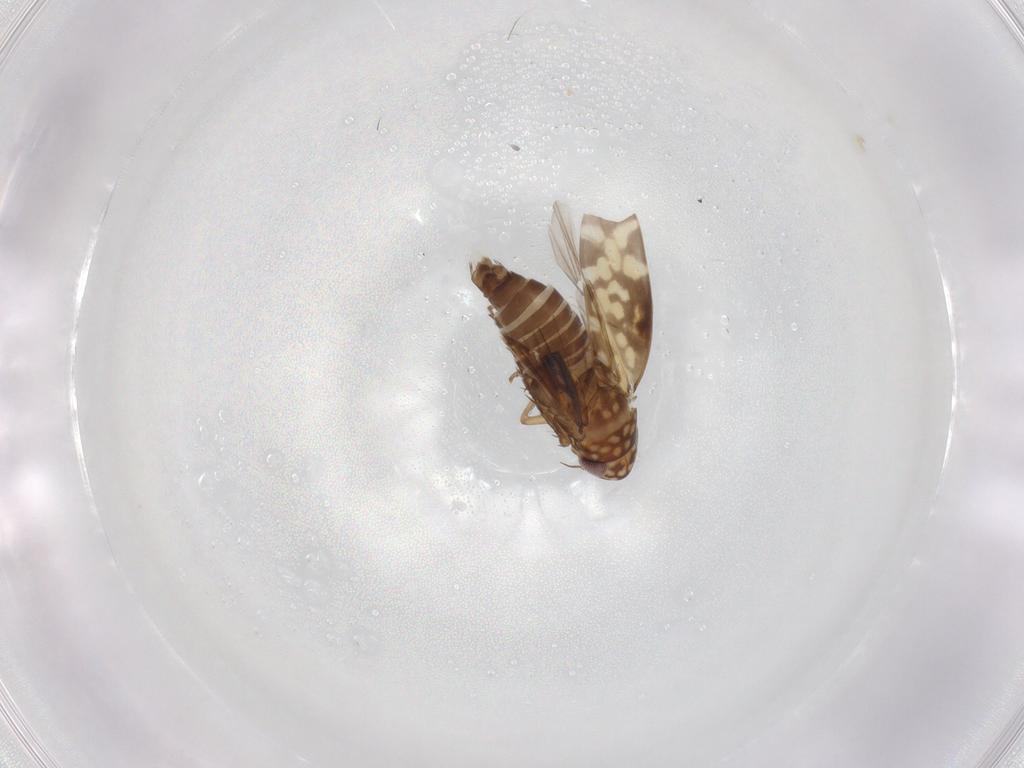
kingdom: Animalia
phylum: Arthropoda
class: Insecta
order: Hemiptera
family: Cicadellidae
